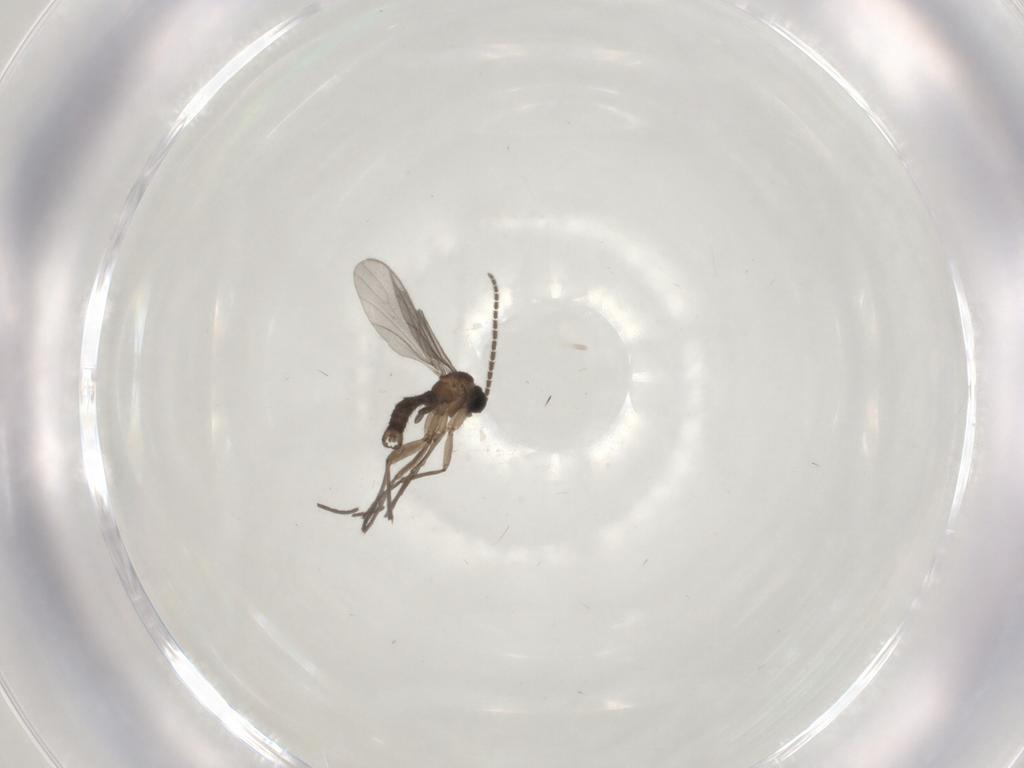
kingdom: Animalia
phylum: Arthropoda
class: Insecta
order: Diptera
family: Sciaridae
